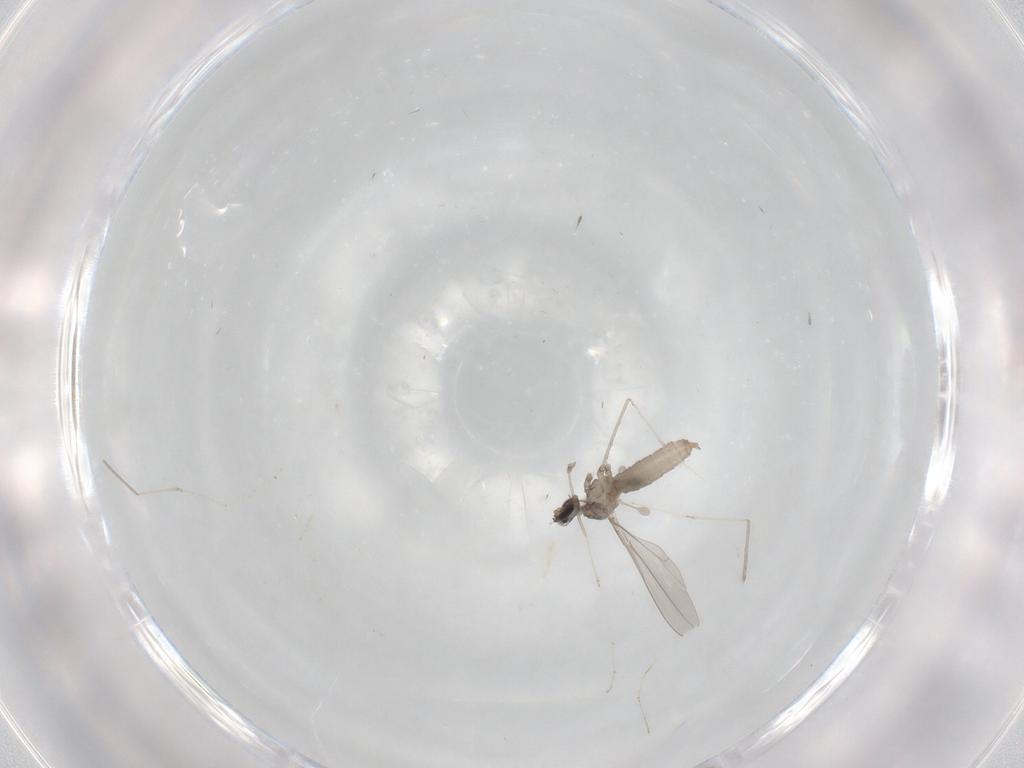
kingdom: Animalia
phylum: Arthropoda
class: Insecta
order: Diptera
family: Cecidomyiidae
